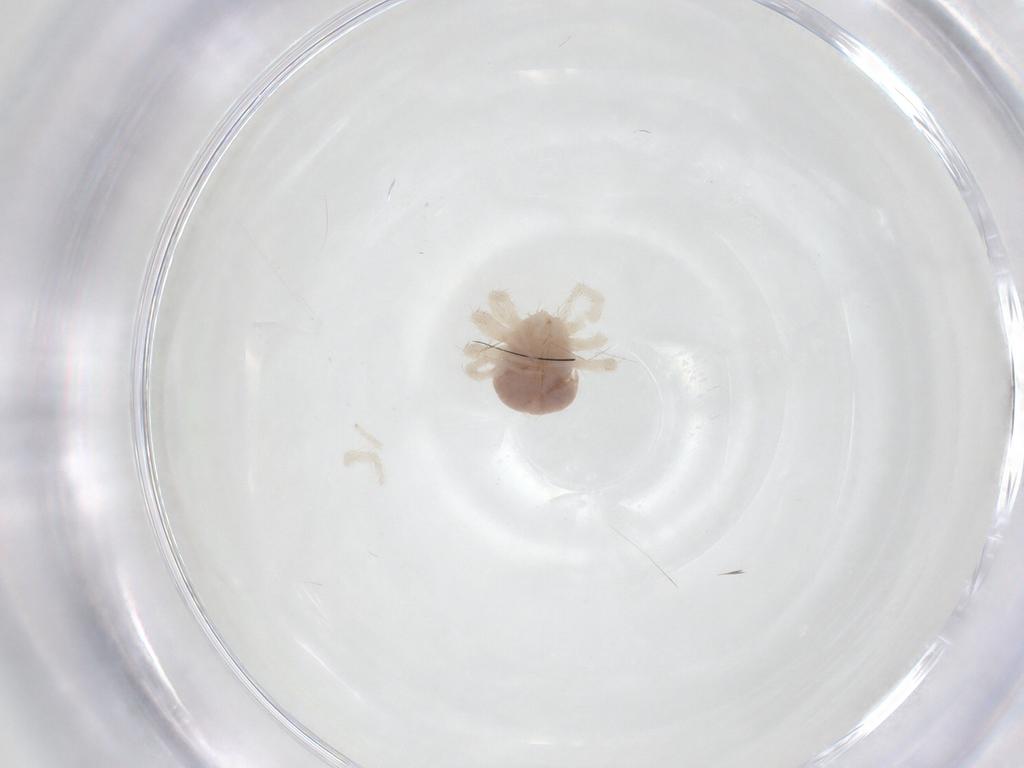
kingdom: Animalia
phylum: Arthropoda
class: Arachnida
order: Trombidiformes
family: Anystidae
